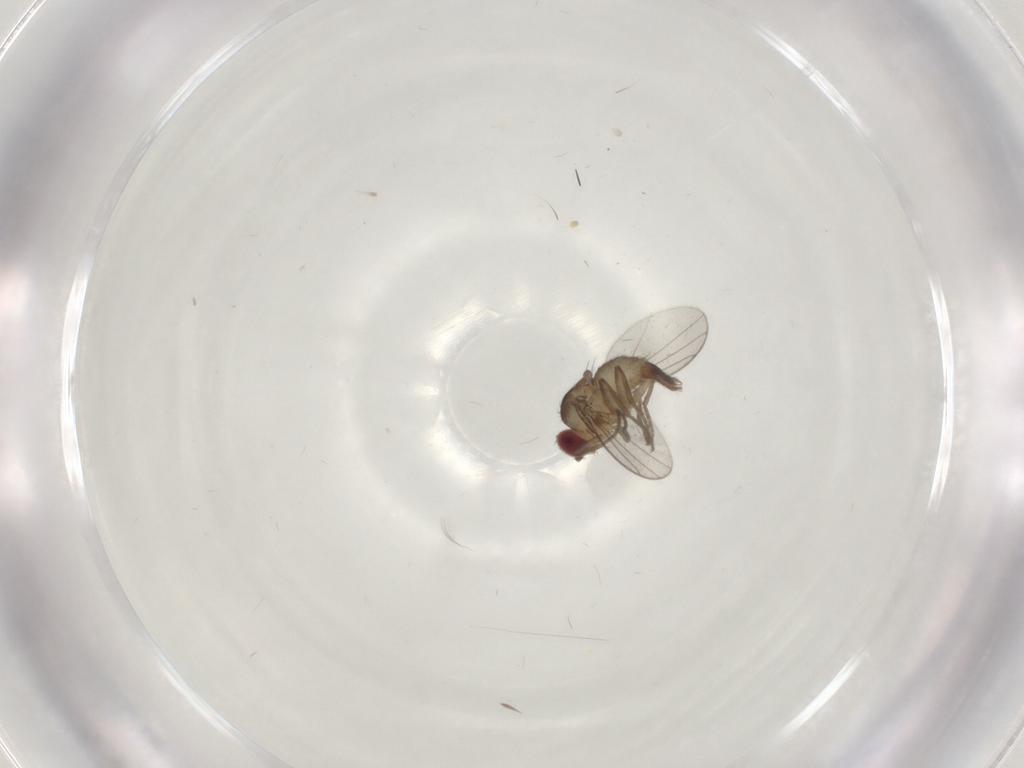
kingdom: Animalia
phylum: Arthropoda
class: Insecta
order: Diptera
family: Agromyzidae
